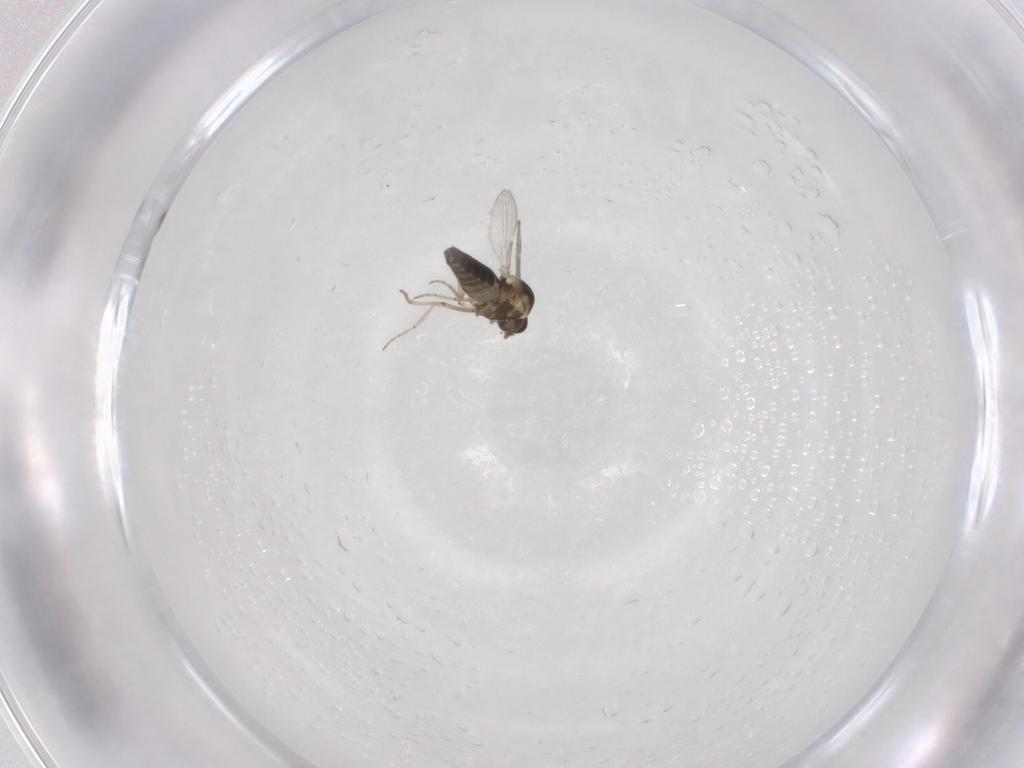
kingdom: Animalia
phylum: Arthropoda
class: Insecta
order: Diptera
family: Ceratopogonidae
